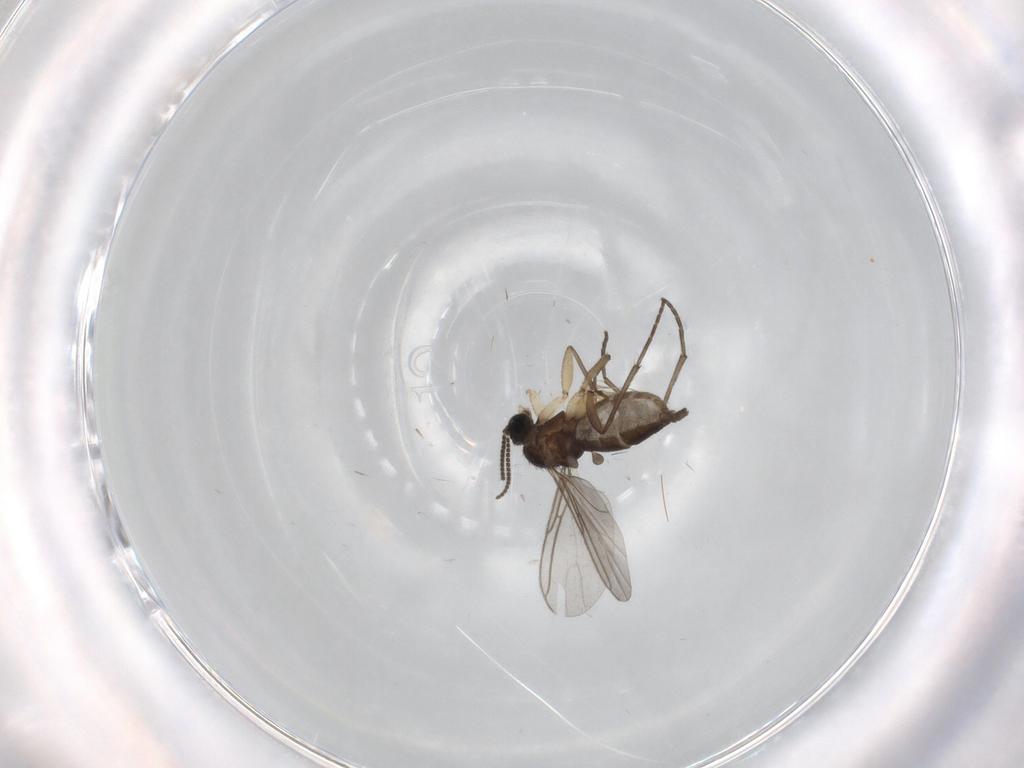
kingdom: Animalia
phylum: Arthropoda
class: Insecta
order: Diptera
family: Sciaridae
